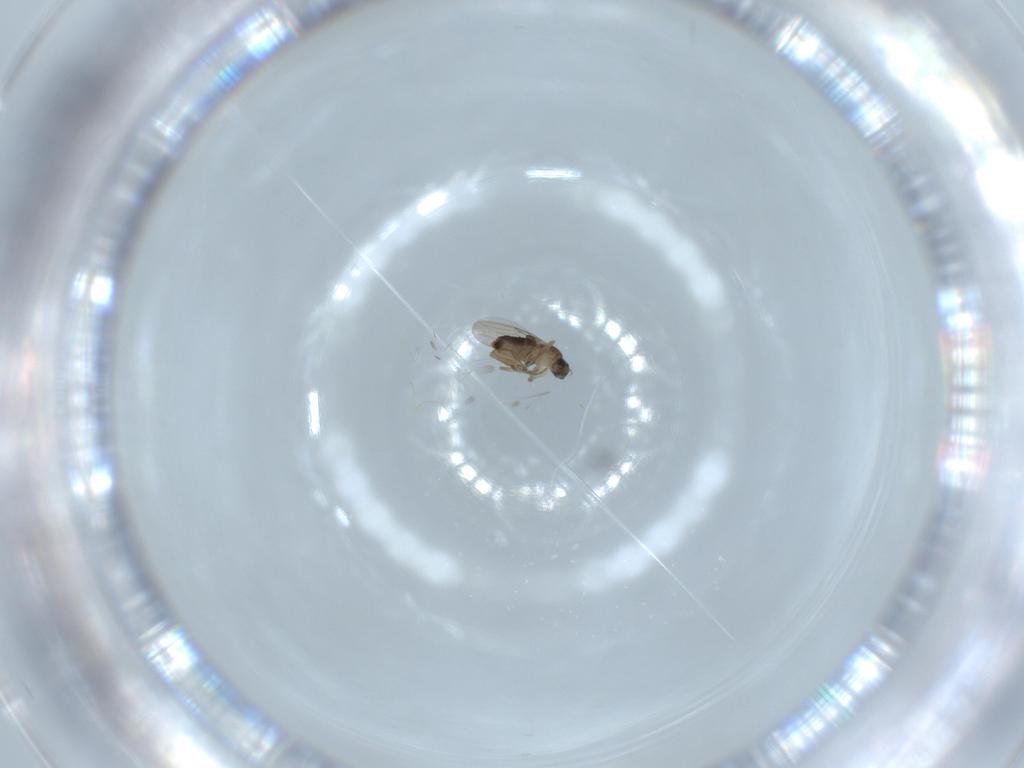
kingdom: Animalia
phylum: Arthropoda
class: Insecta
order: Diptera
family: Phoridae
